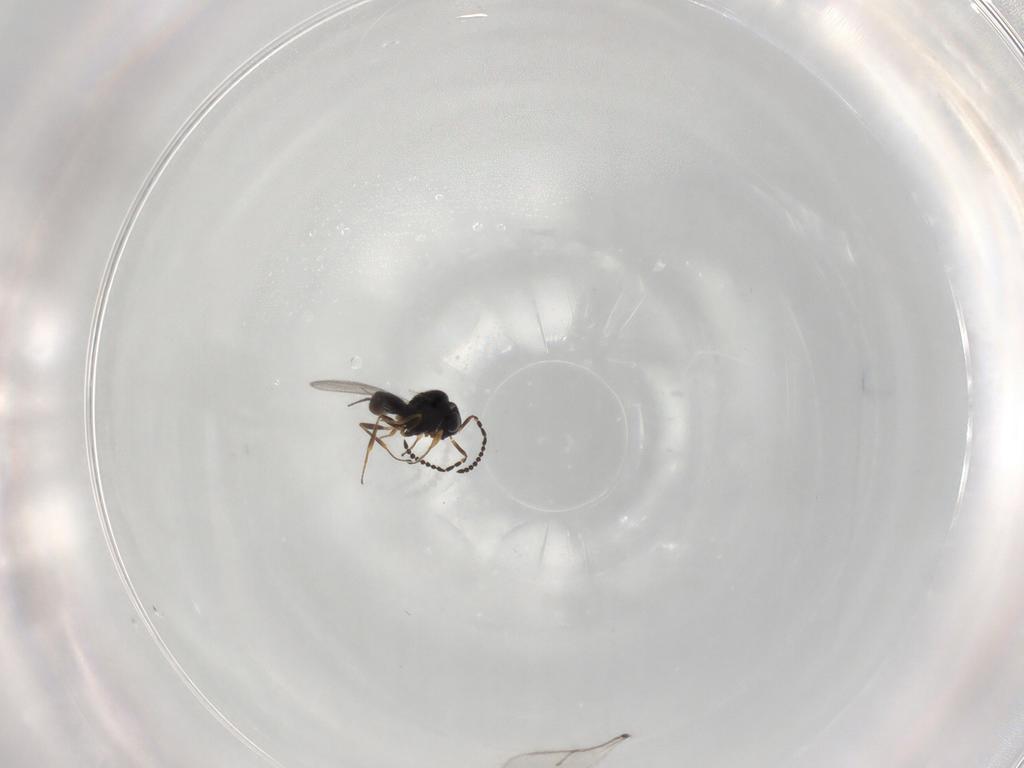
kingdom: Animalia
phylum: Arthropoda
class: Insecta
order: Hymenoptera
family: Scelionidae
